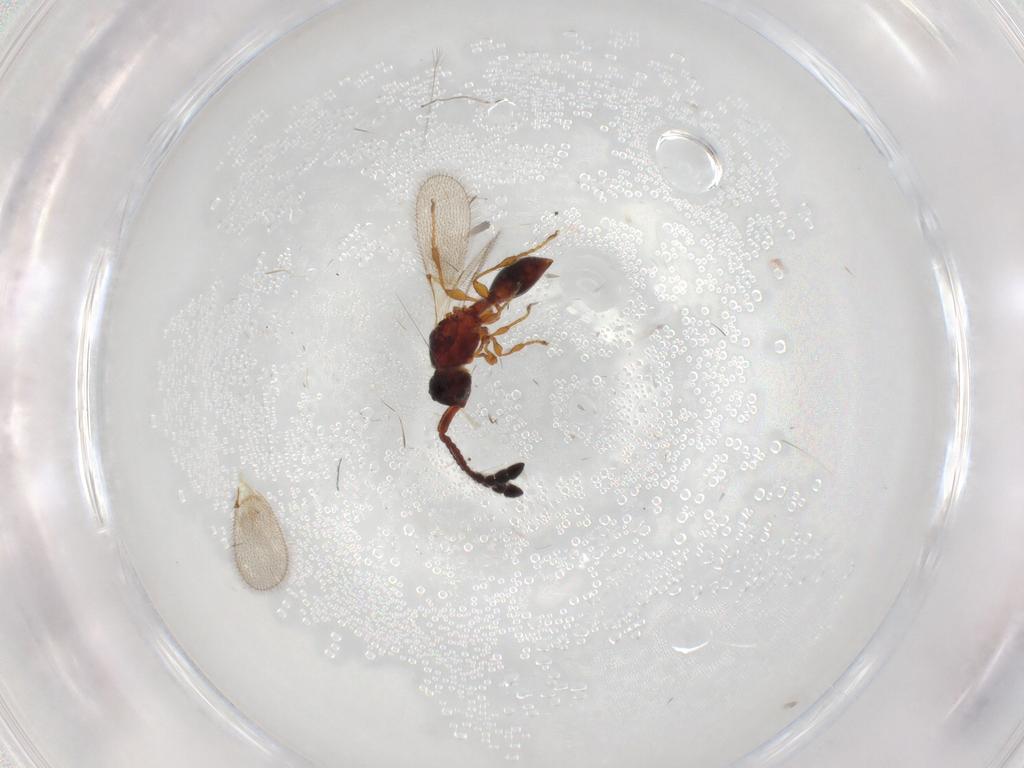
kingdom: Animalia
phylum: Arthropoda
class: Insecta
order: Hymenoptera
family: Diapriidae
